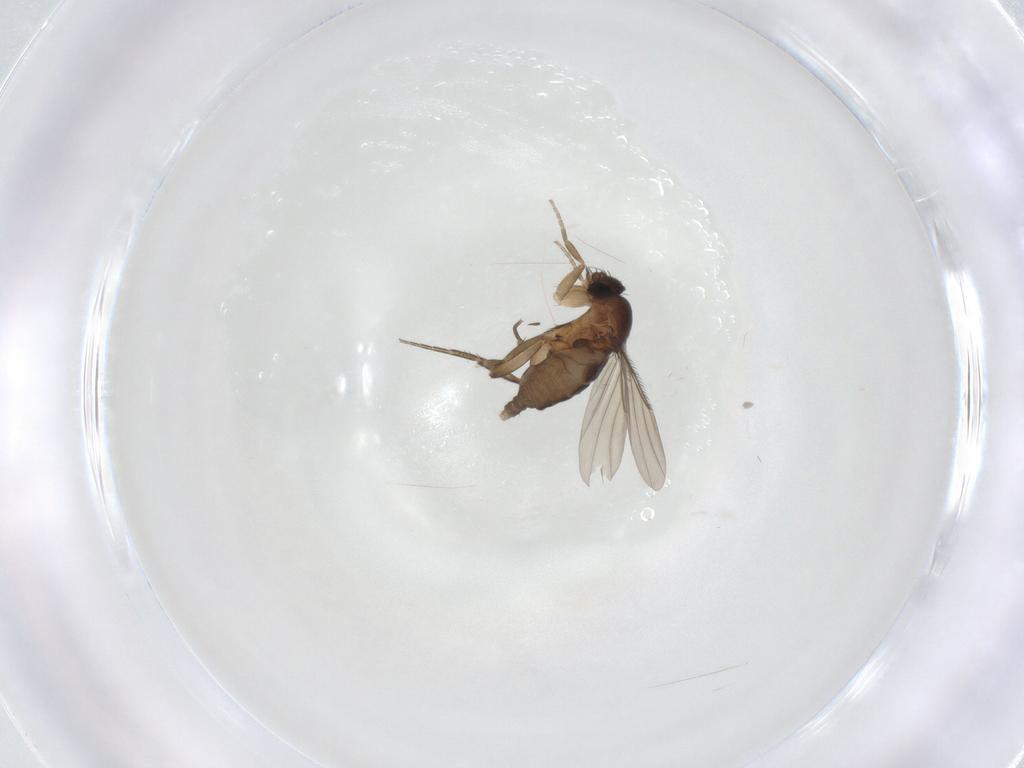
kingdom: Animalia
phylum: Arthropoda
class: Insecta
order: Diptera
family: Phoridae
